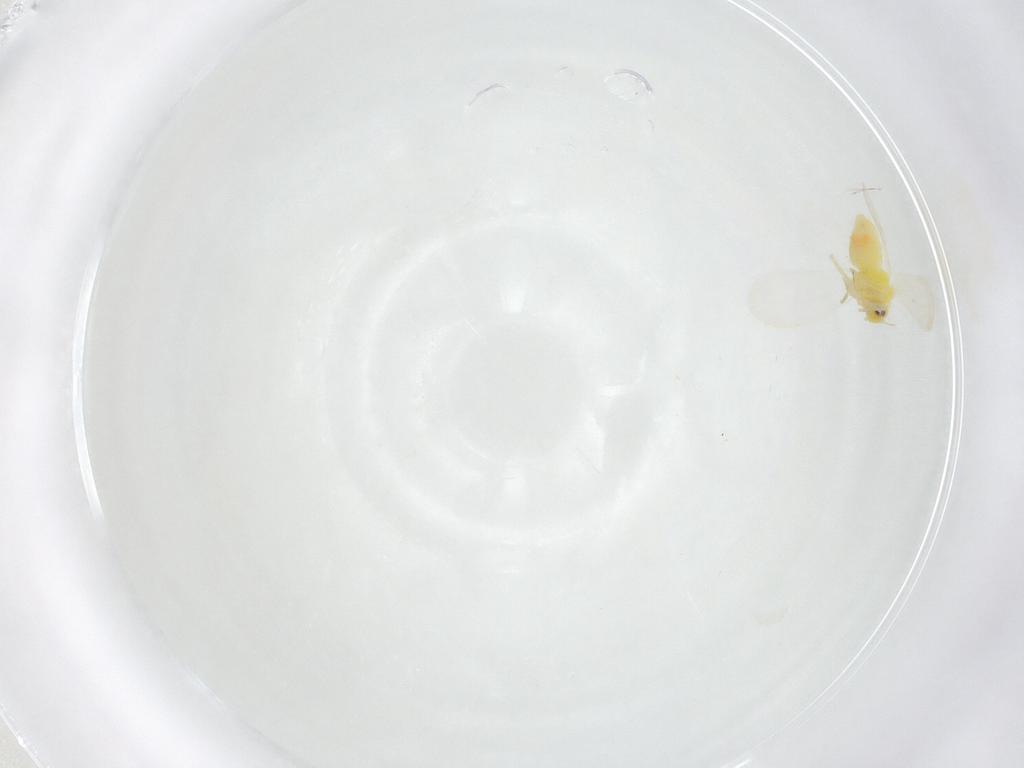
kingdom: Animalia
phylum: Arthropoda
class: Insecta
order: Hemiptera
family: Aleyrodidae
